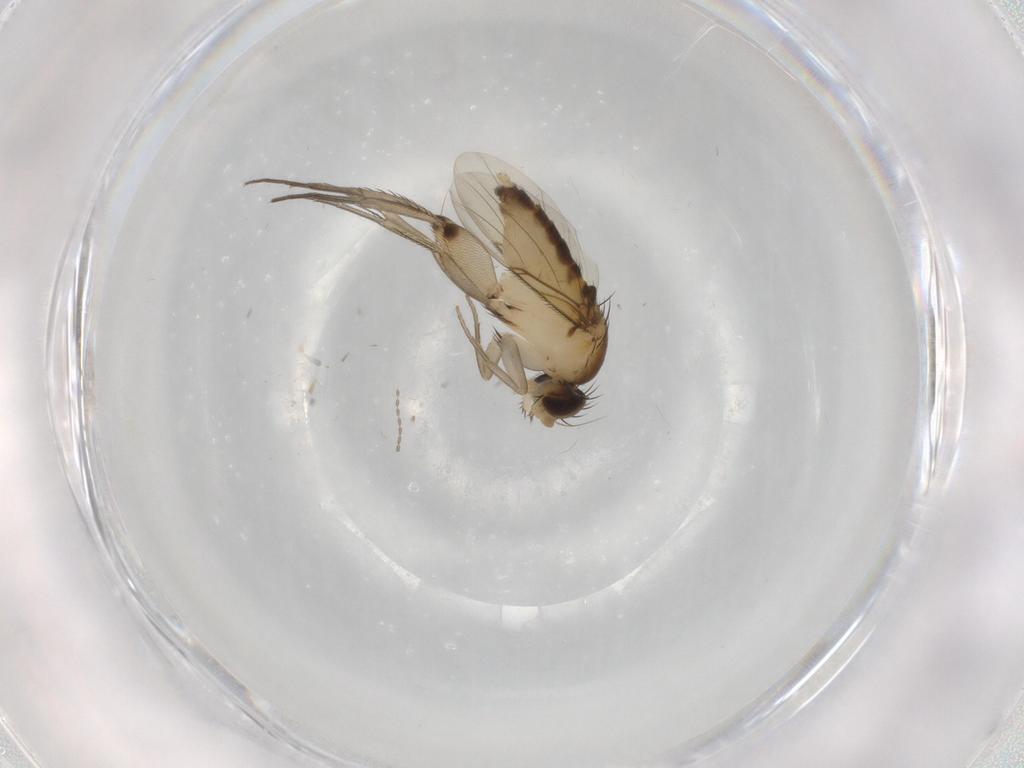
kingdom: Animalia
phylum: Arthropoda
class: Insecta
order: Diptera
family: Phoridae
